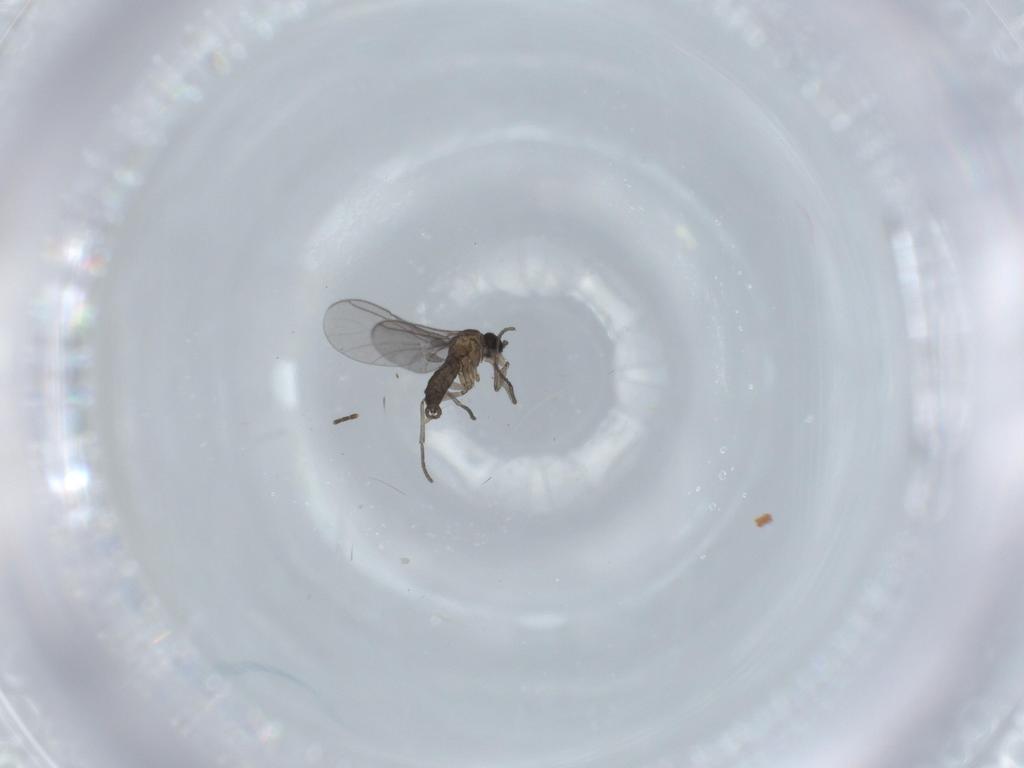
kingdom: Animalia
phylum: Arthropoda
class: Insecta
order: Diptera
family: Sciaridae
